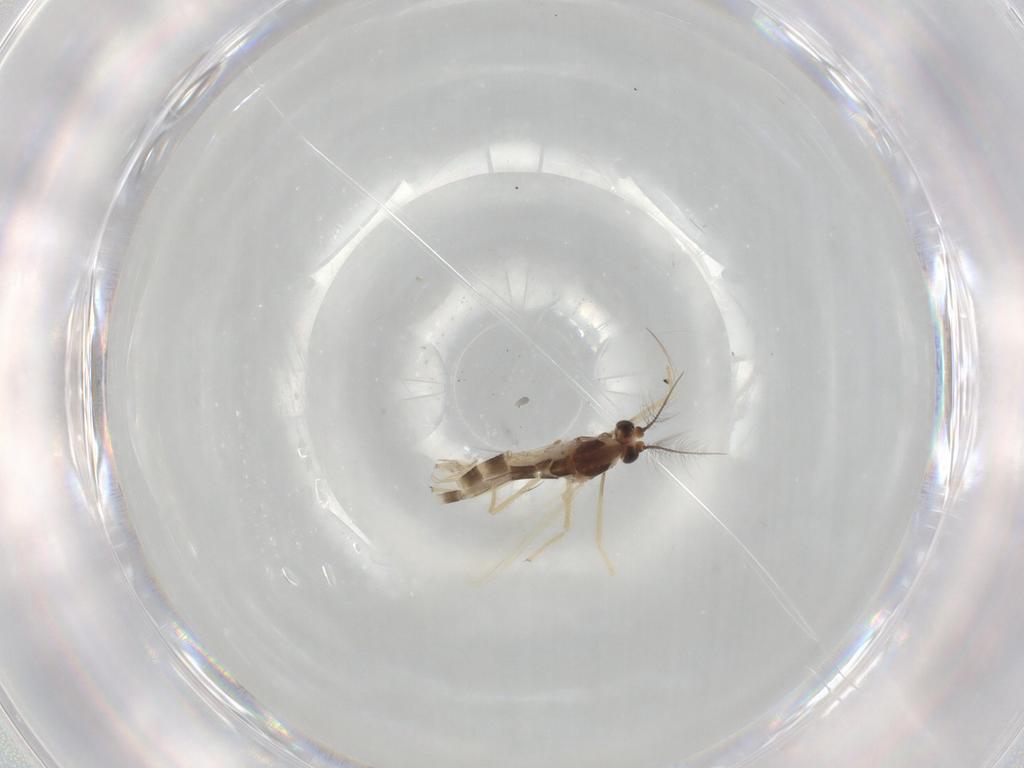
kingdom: Animalia
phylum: Arthropoda
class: Insecta
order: Diptera
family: Chironomidae
